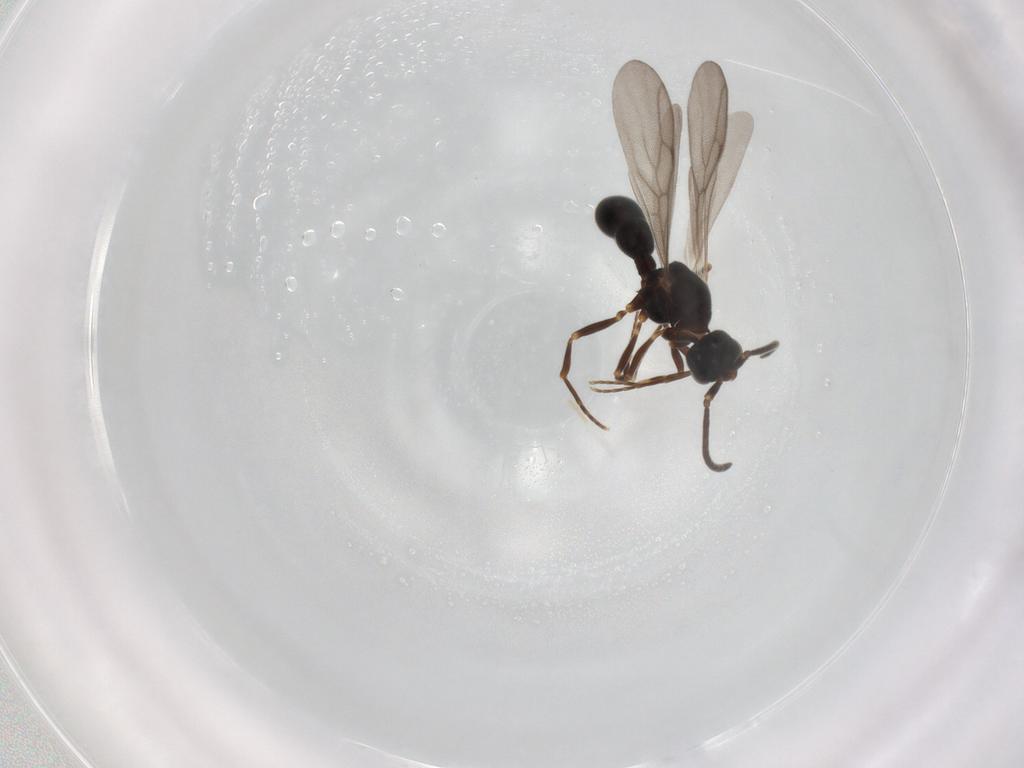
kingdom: Animalia
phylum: Arthropoda
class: Insecta
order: Hymenoptera
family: Formicidae
